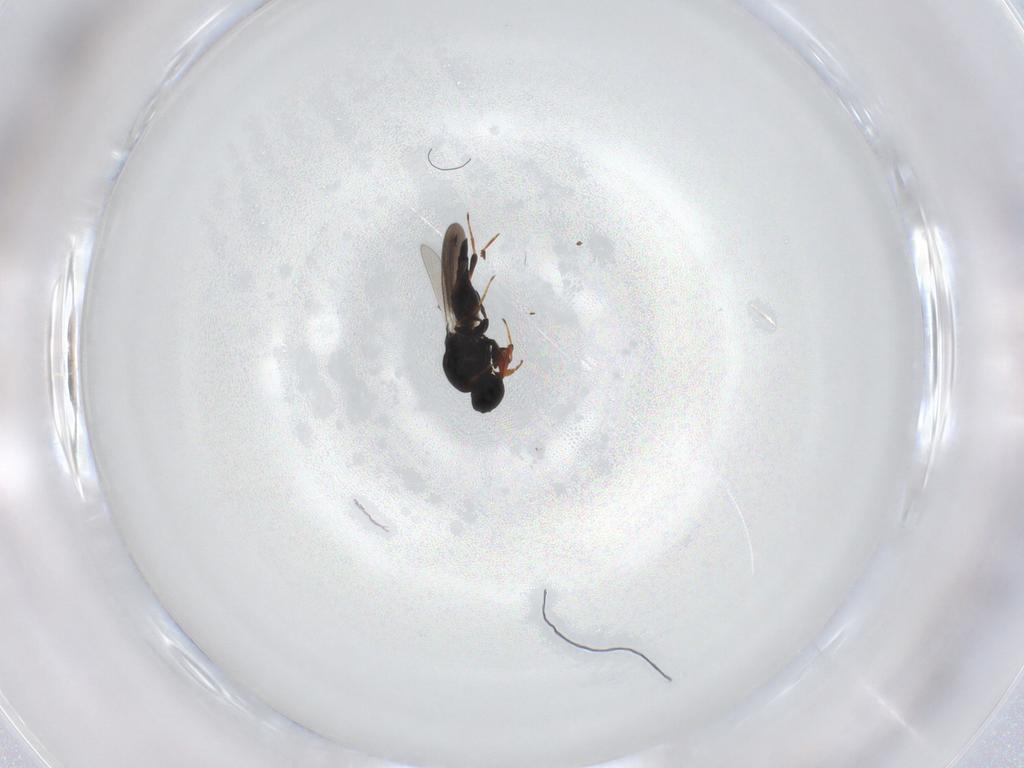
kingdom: Animalia
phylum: Arthropoda
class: Insecta
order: Hymenoptera
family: Platygastridae
